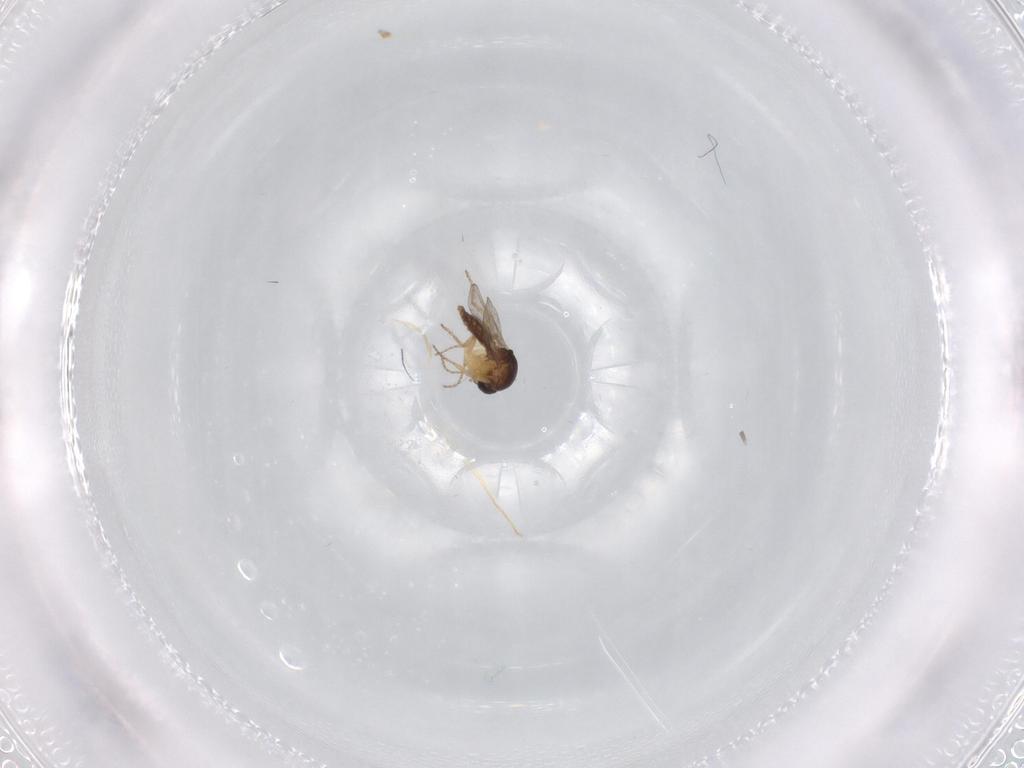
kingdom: Animalia
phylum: Arthropoda
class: Insecta
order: Diptera
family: Ceratopogonidae
